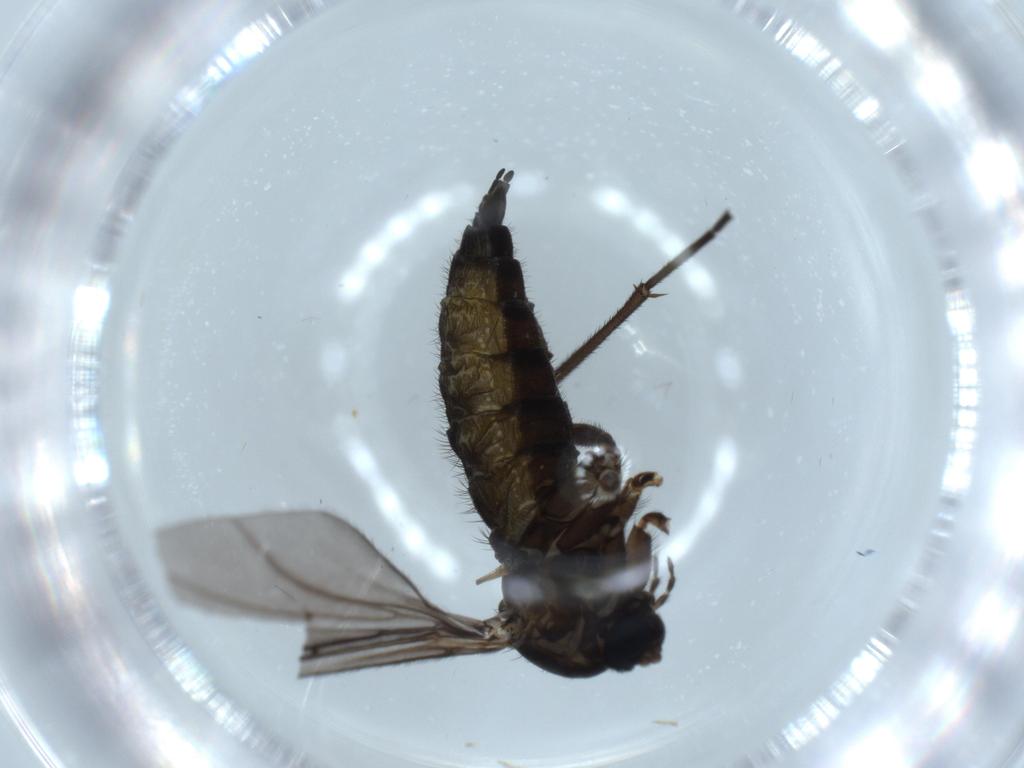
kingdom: Animalia
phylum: Arthropoda
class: Insecta
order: Diptera
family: Sciaridae
